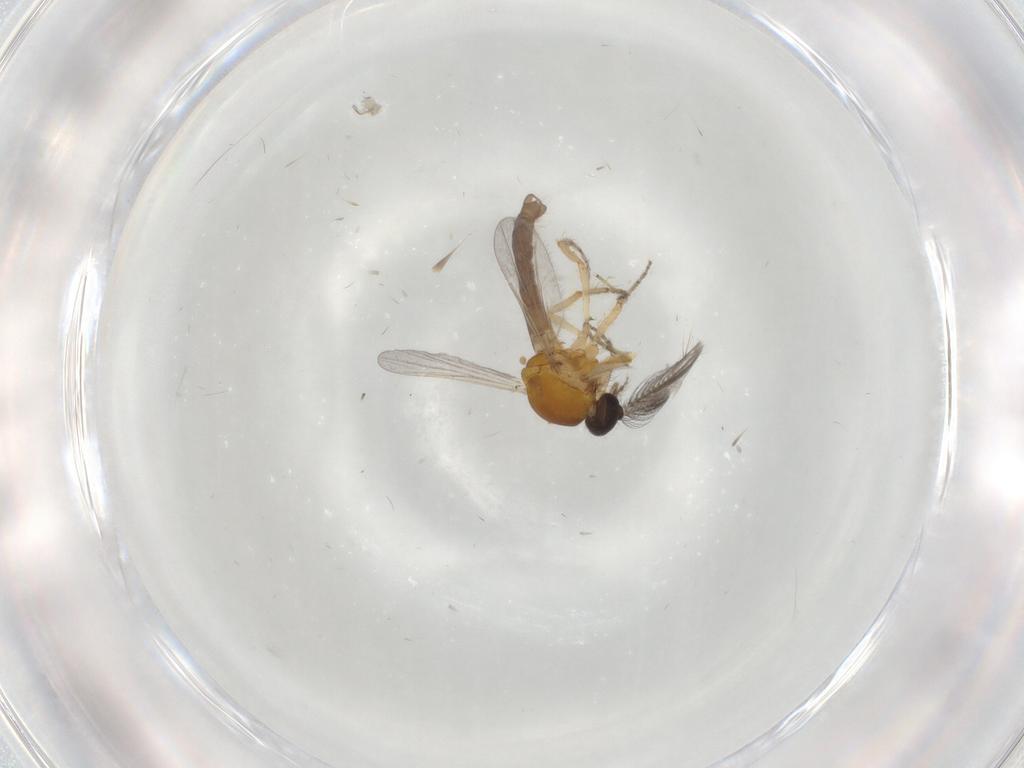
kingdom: Animalia
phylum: Arthropoda
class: Insecta
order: Diptera
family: Ceratopogonidae
